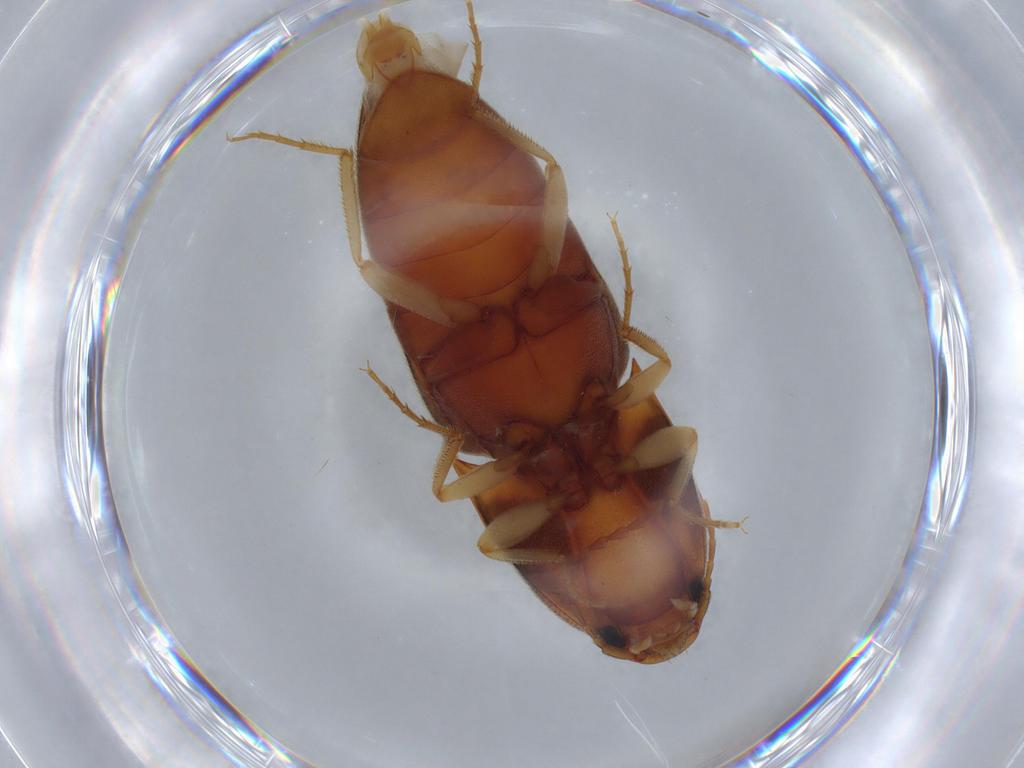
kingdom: Animalia
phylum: Arthropoda
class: Insecta
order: Coleoptera
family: Elateridae
